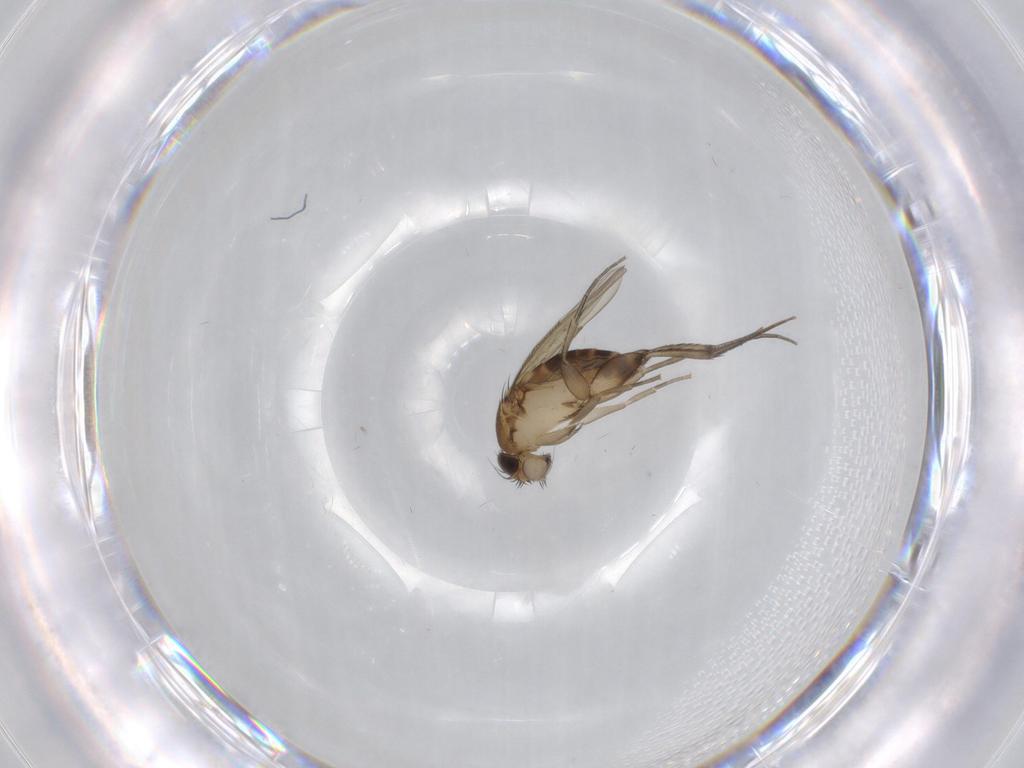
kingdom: Animalia
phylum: Arthropoda
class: Insecta
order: Diptera
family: Phoridae
